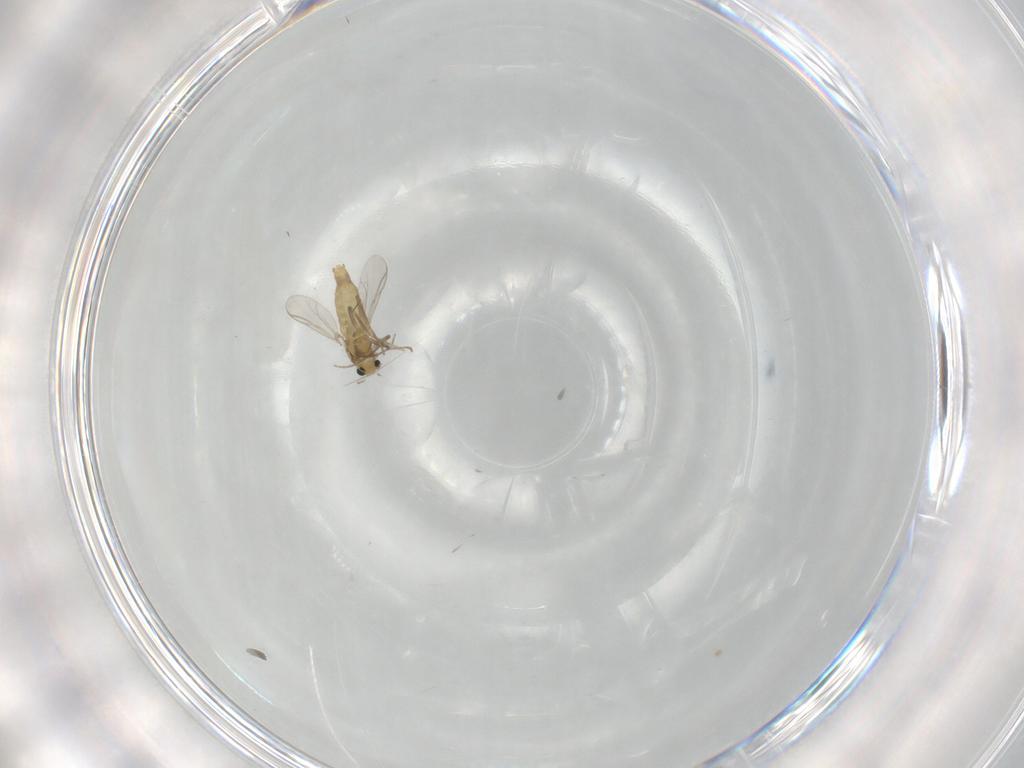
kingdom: Animalia
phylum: Arthropoda
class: Insecta
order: Diptera
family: Chironomidae
